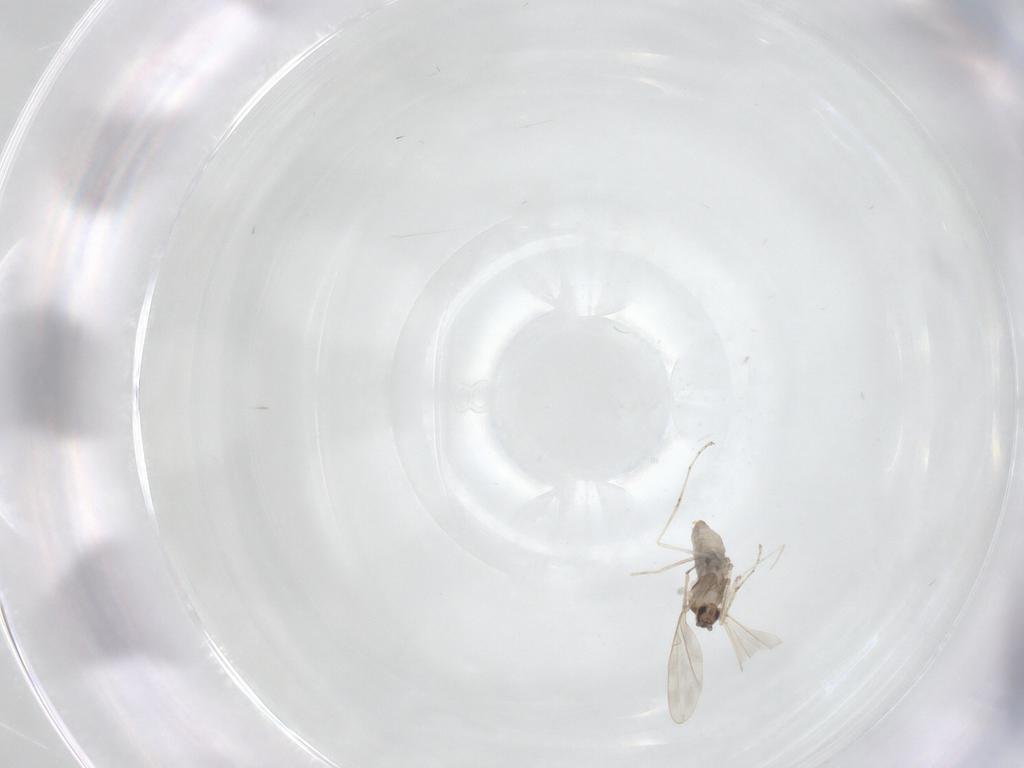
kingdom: Animalia
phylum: Arthropoda
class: Insecta
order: Diptera
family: Cecidomyiidae
